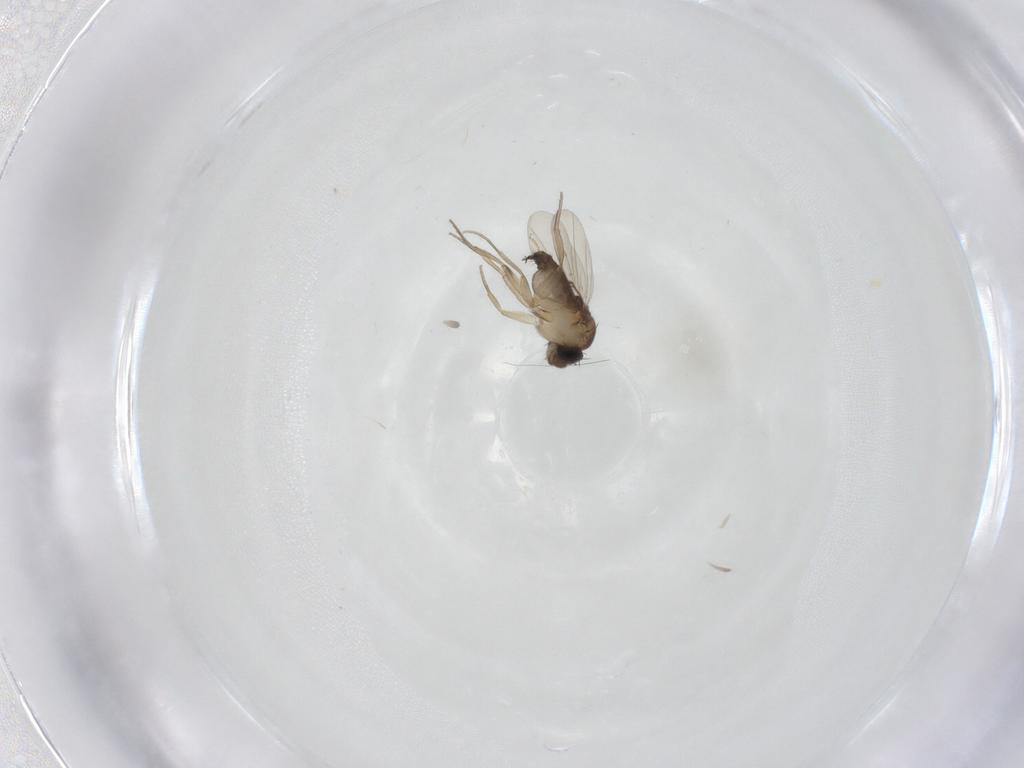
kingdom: Animalia
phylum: Arthropoda
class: Insecta
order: Diptera
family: Phoridae
